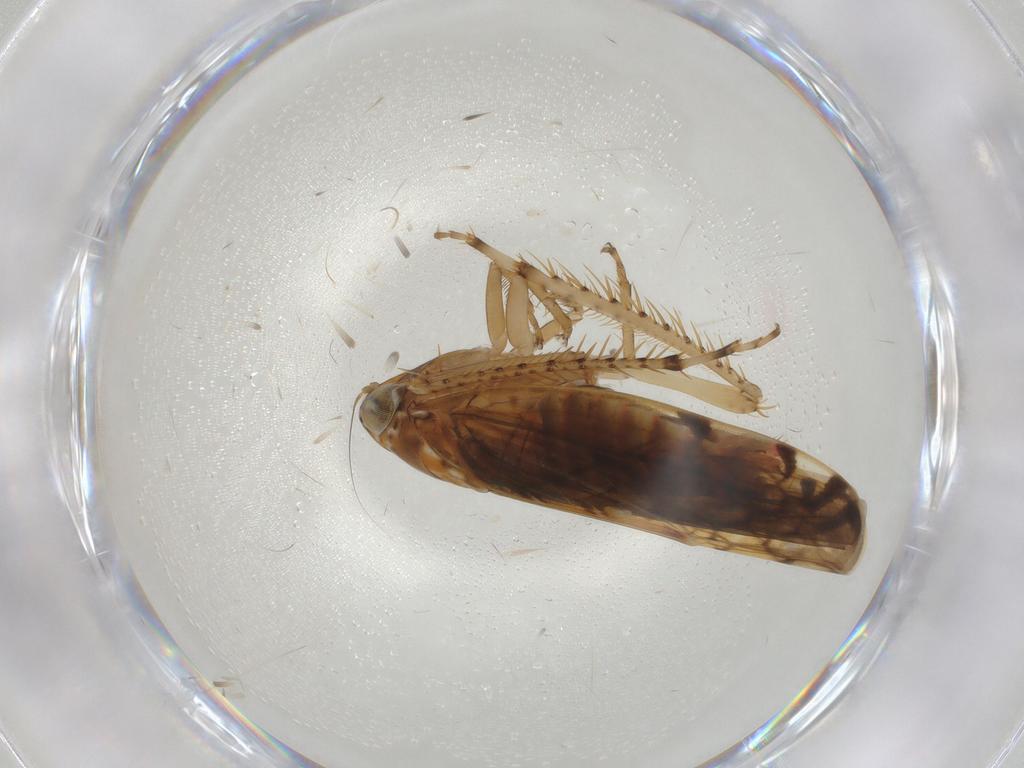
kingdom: Animalia
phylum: Arthropoda
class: Insecta
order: Hemiptera
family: Cicadellidae
